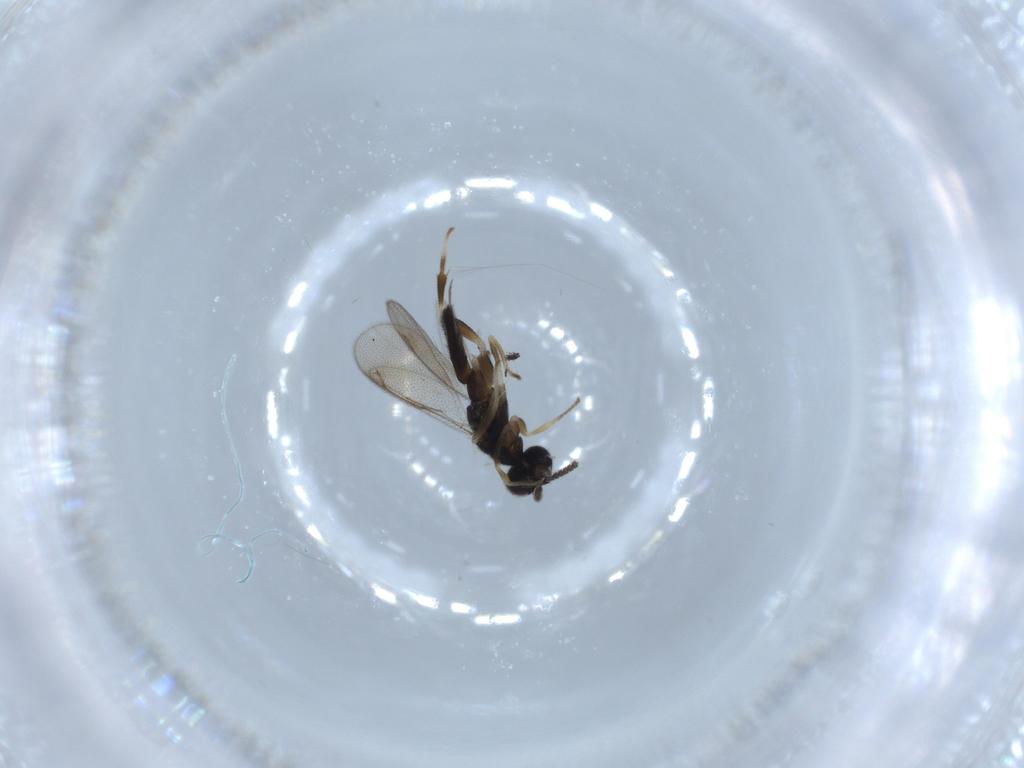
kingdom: Animalia
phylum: Arthropoda
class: Insecta
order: Hymenoptera
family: Cleonyminae
